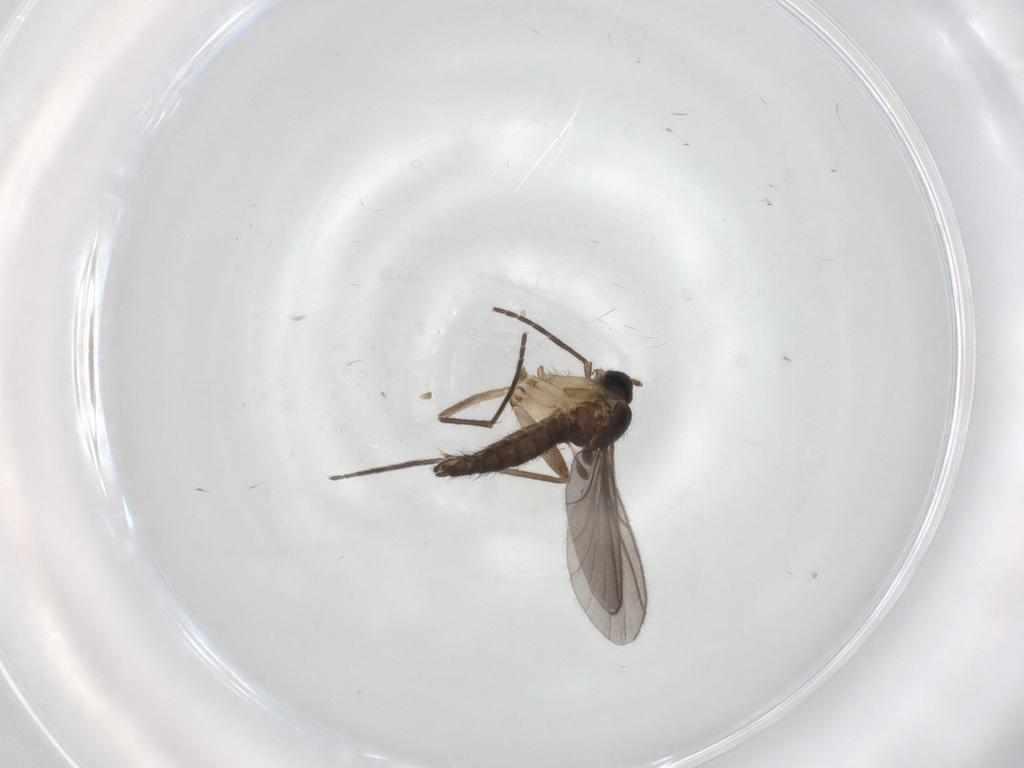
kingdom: Animalia
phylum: Arthropoda
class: Insecta
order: Diptera
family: Sciaridae
